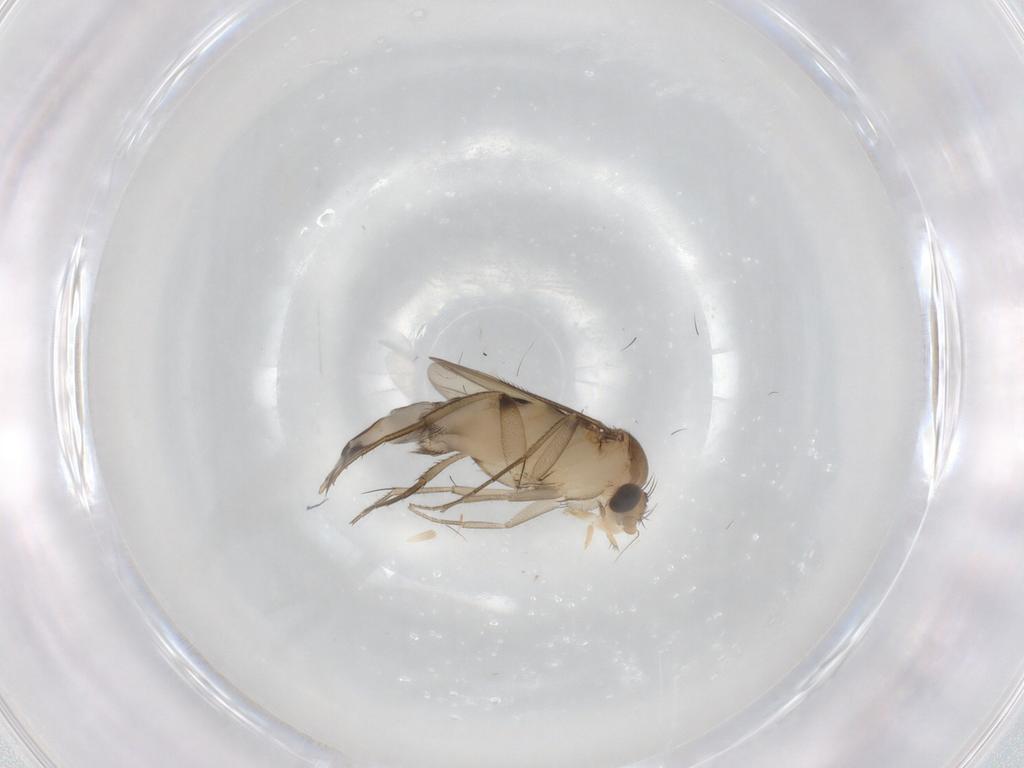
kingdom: Animalia
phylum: Arthropoda
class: Insecta
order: Diptera
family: Phoridae
